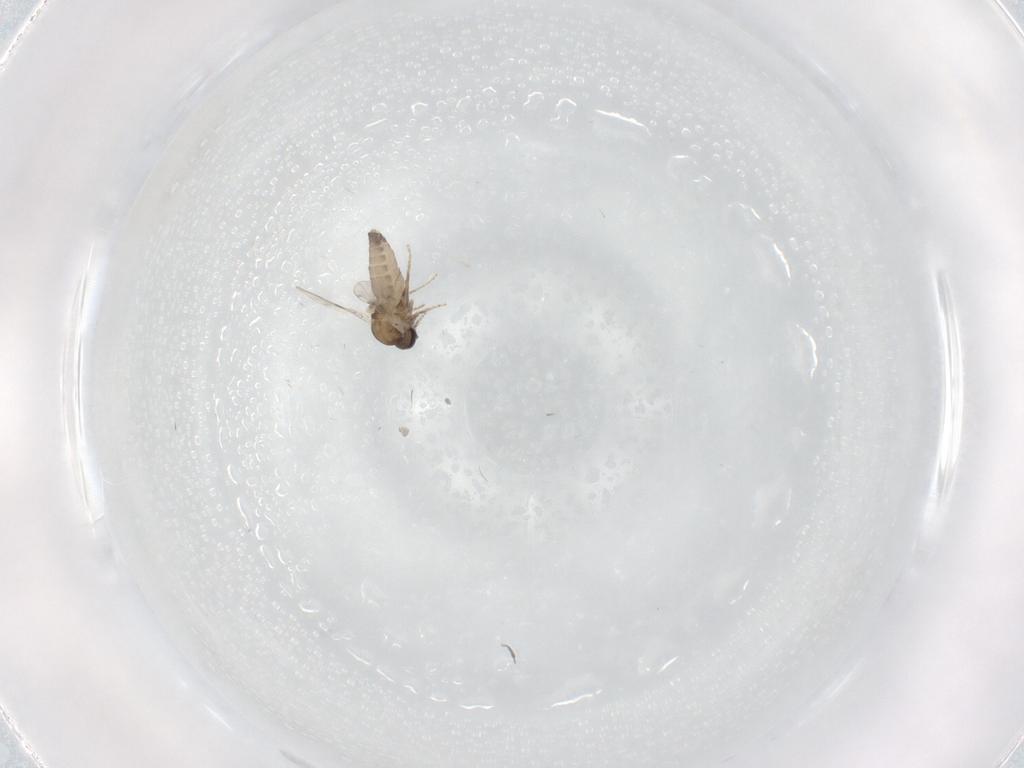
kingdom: Animalia
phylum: Arthropoda
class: Insecta
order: Diptera
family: Ceratopogonidae
